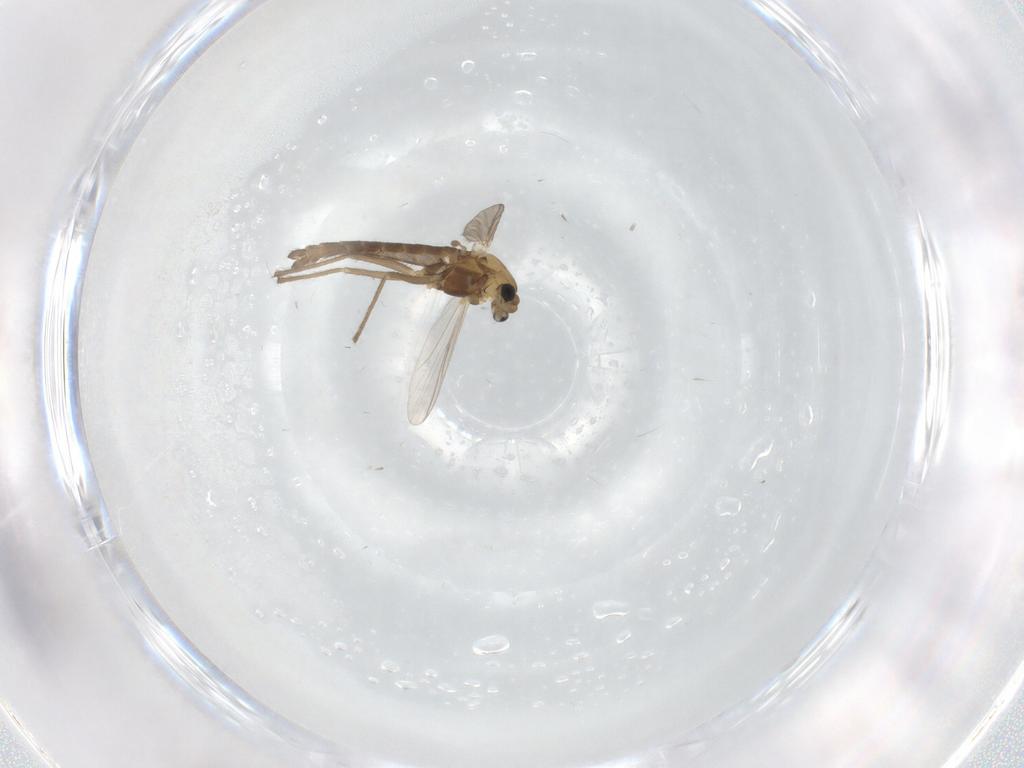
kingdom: Animalia
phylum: Arthropoda
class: Insecta
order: Diptera
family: Chironomidae
